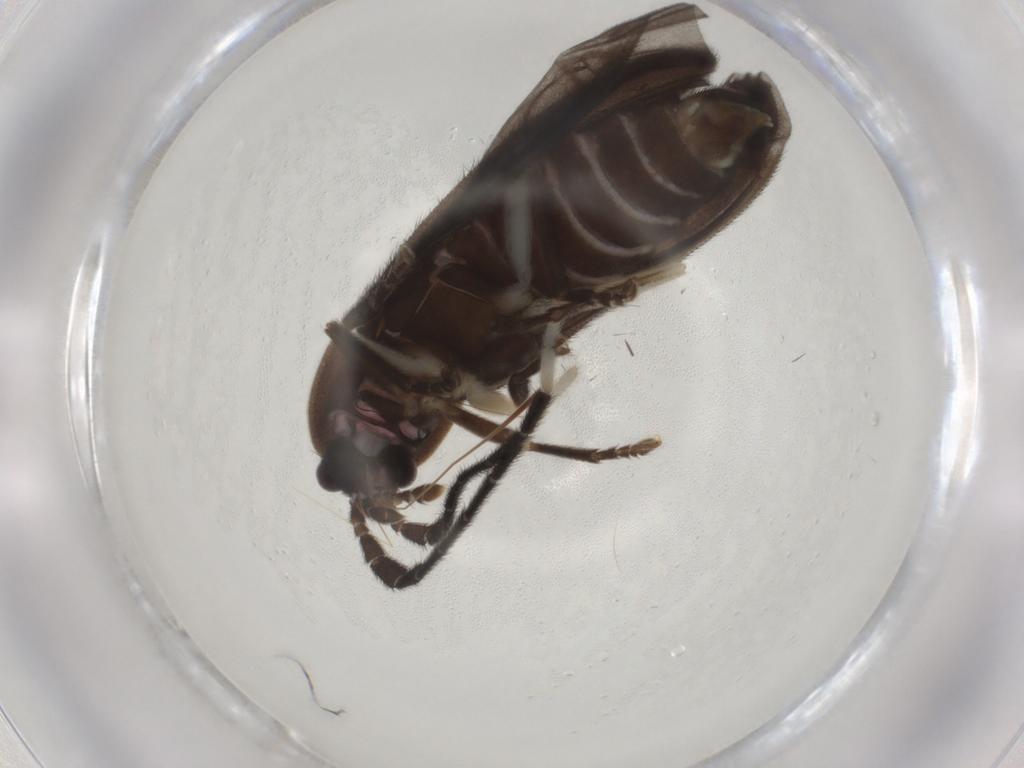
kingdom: Animalia
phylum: Arthropoda
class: Insecta
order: Coleoptera
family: Lampyridae
